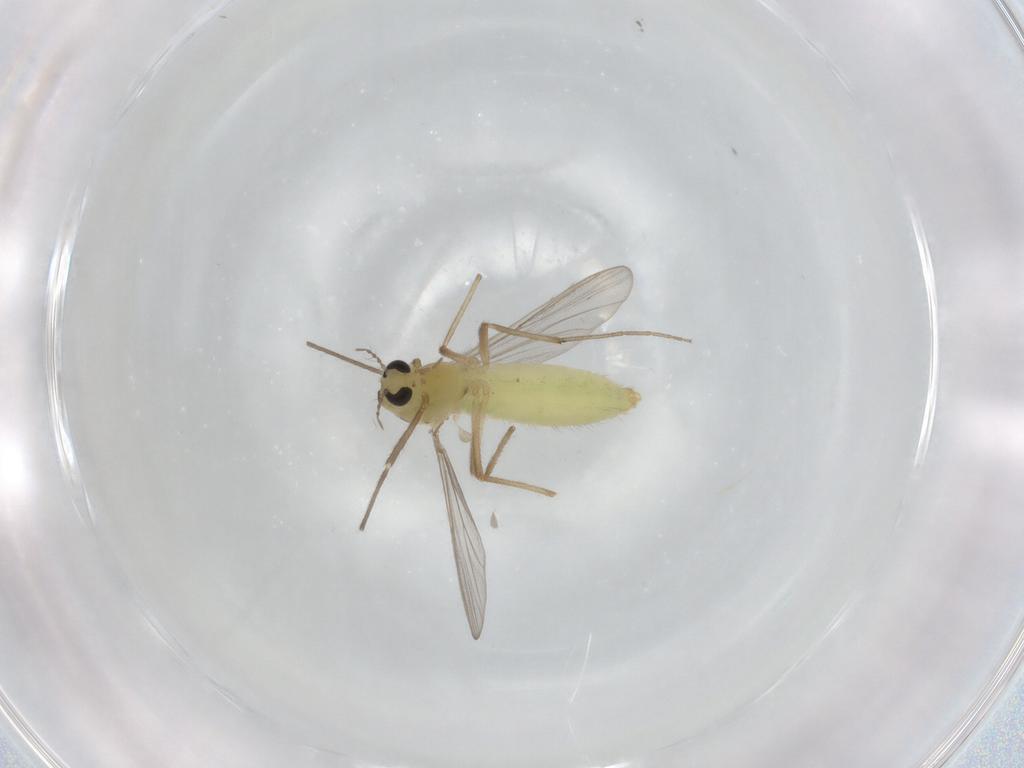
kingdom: Animalia
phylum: Arthropoda
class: Insecta
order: Diptera
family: Chironomidae
